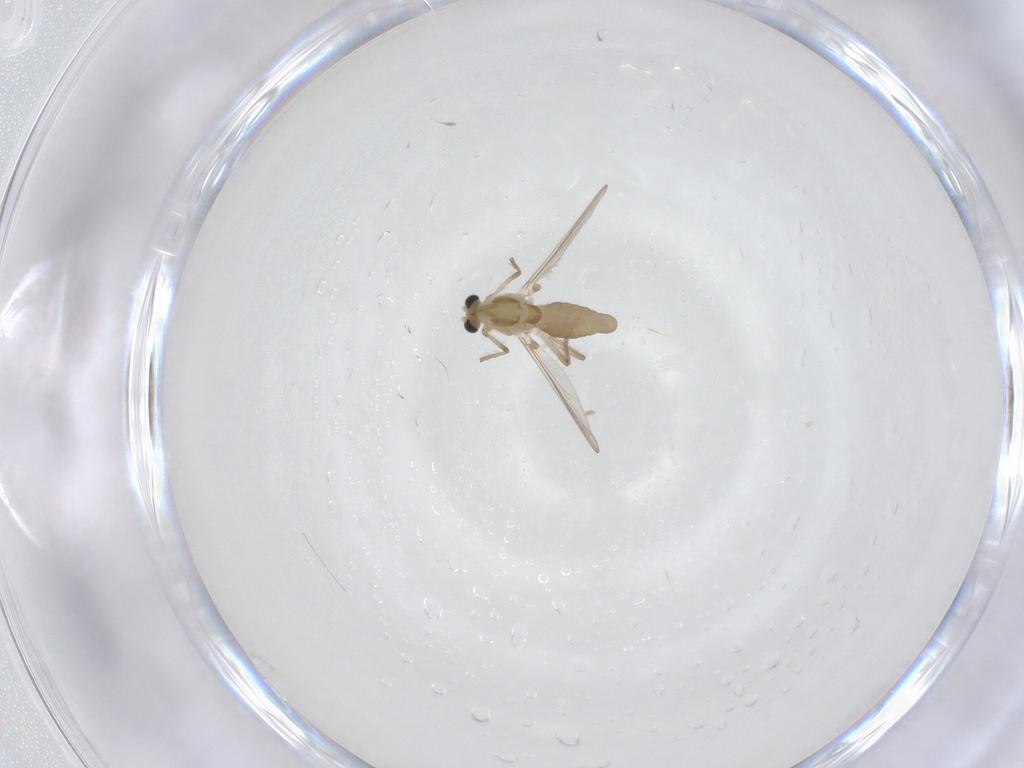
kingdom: Animalia
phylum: Arthropoda
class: Insecta
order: Diptera
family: Chironomidae
